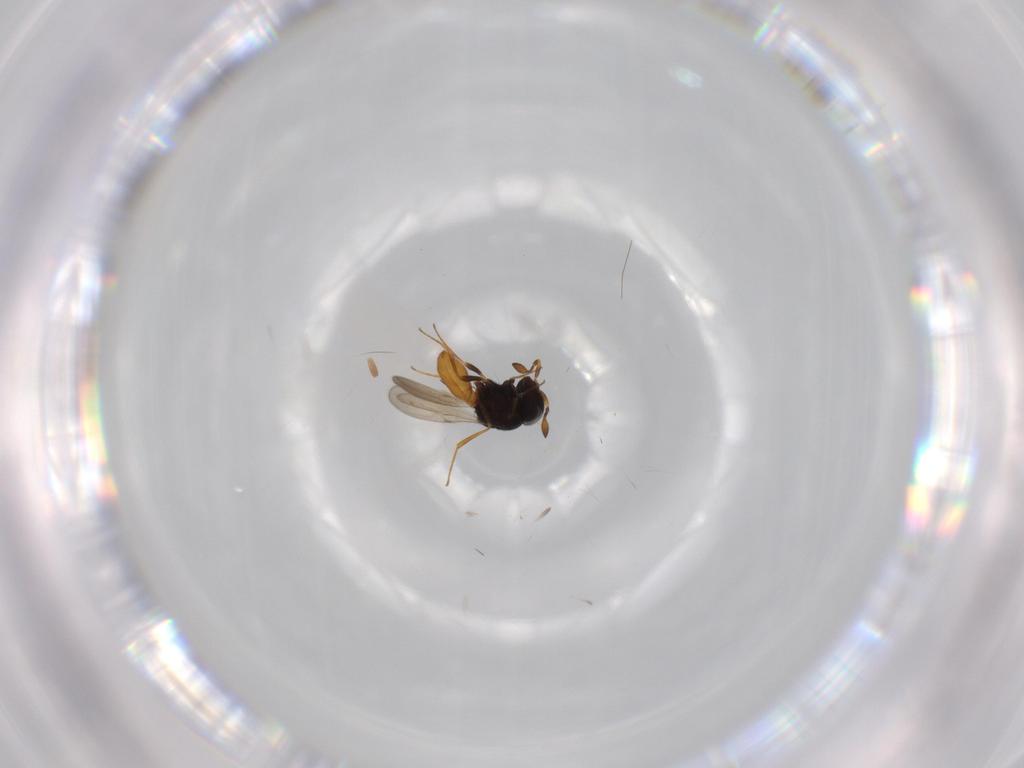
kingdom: Animalia
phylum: Arthropoda
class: Insecta
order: Hymenoptera
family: Scelionidae
